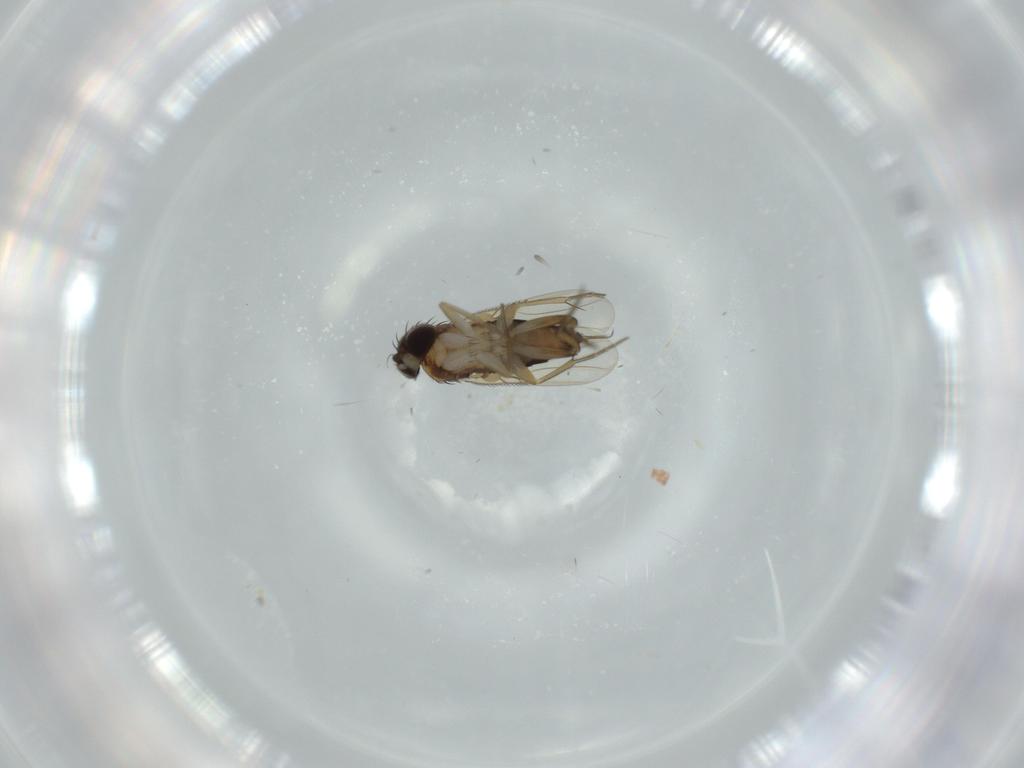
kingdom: Animalia
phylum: Arthropoda
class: Insecta
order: Diptera
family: Phoridae
